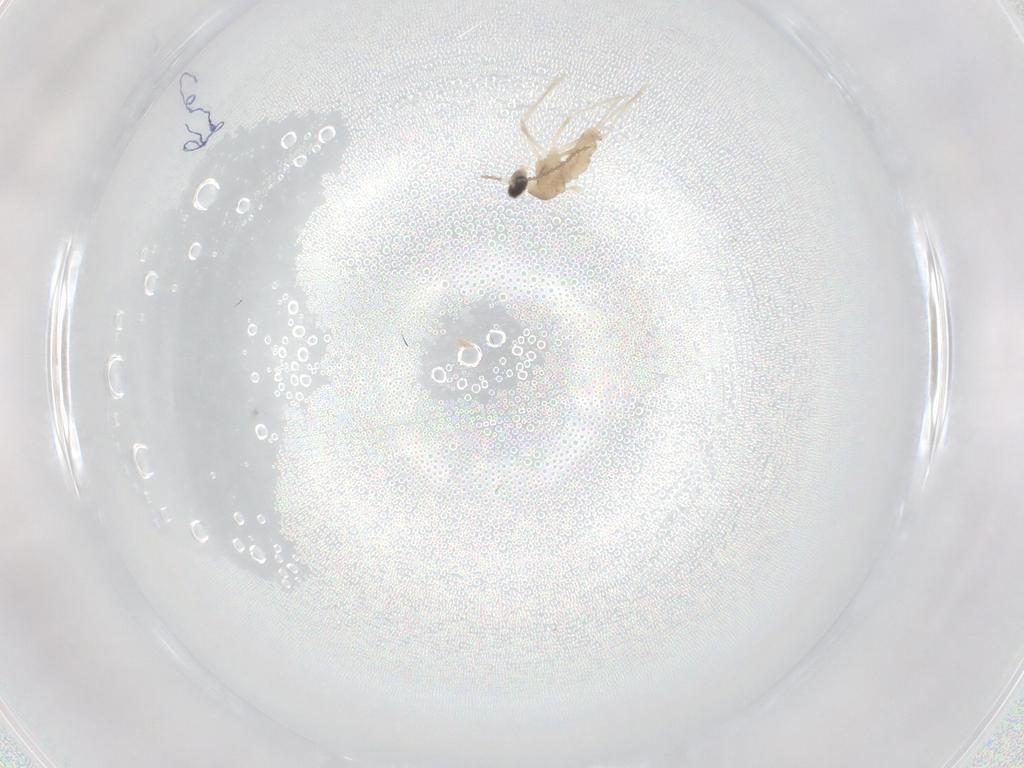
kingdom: Animalia
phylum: Arthropoda
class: Insecta
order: Diptera
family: Cecidomyiidae
